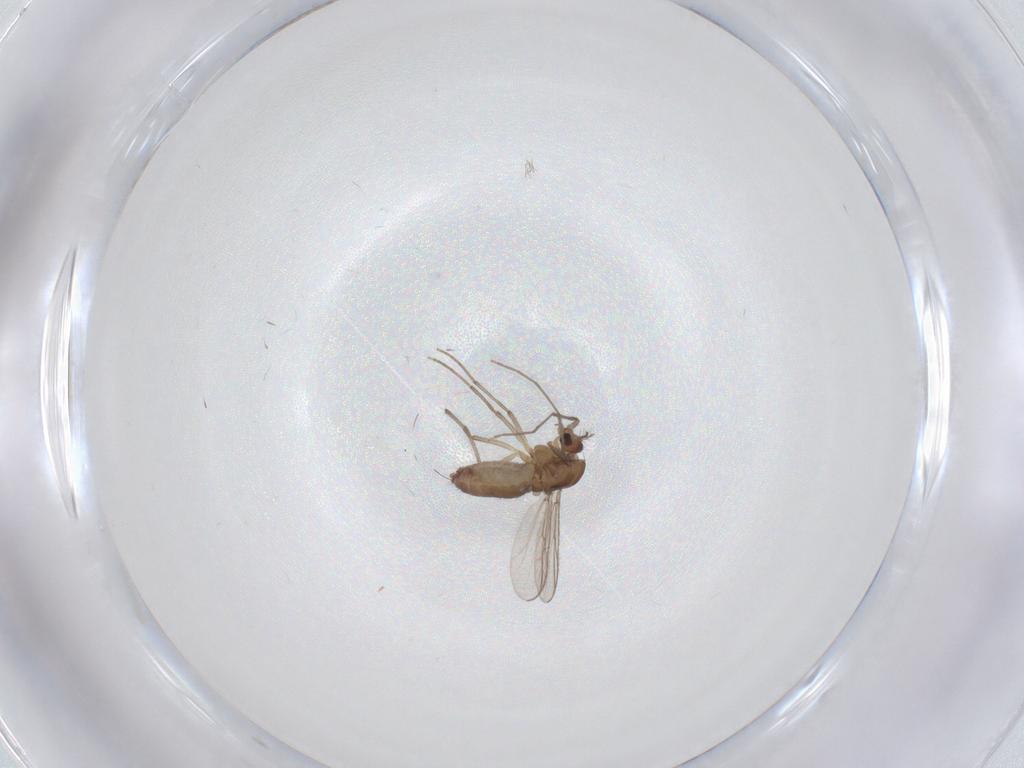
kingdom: Animalia
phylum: Arthropoda
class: Insecta
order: Diptera
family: Chironomidae
